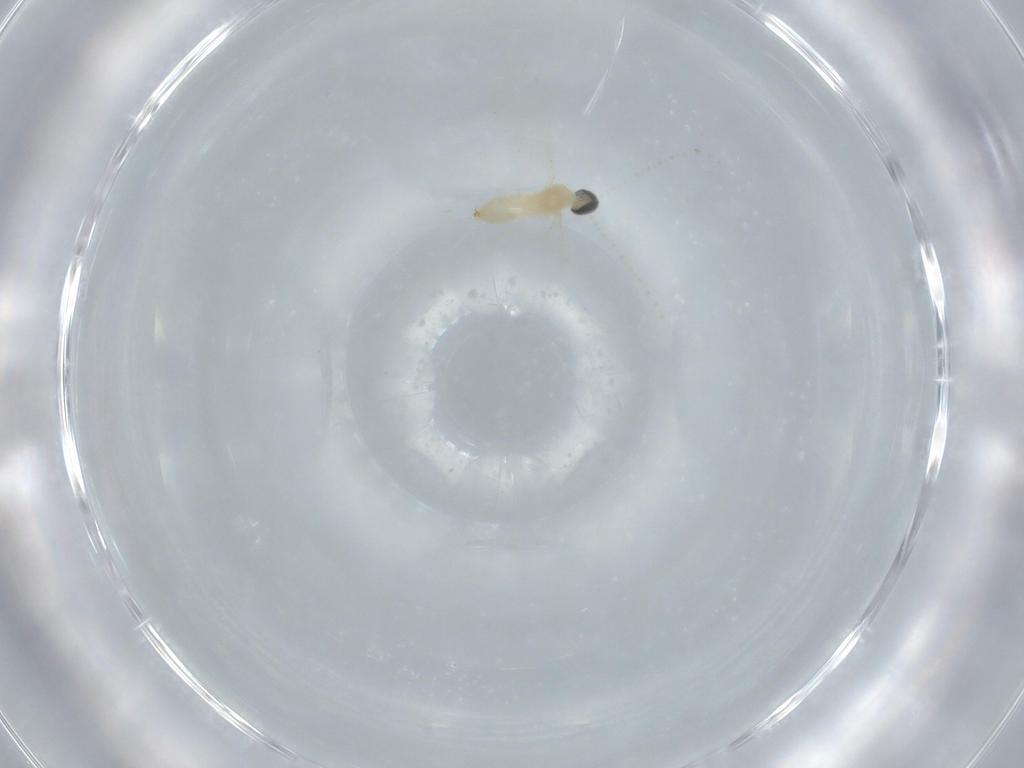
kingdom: Animalia
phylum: Arthropoda
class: Insecta
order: Diptera
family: Cecidomyiidae
